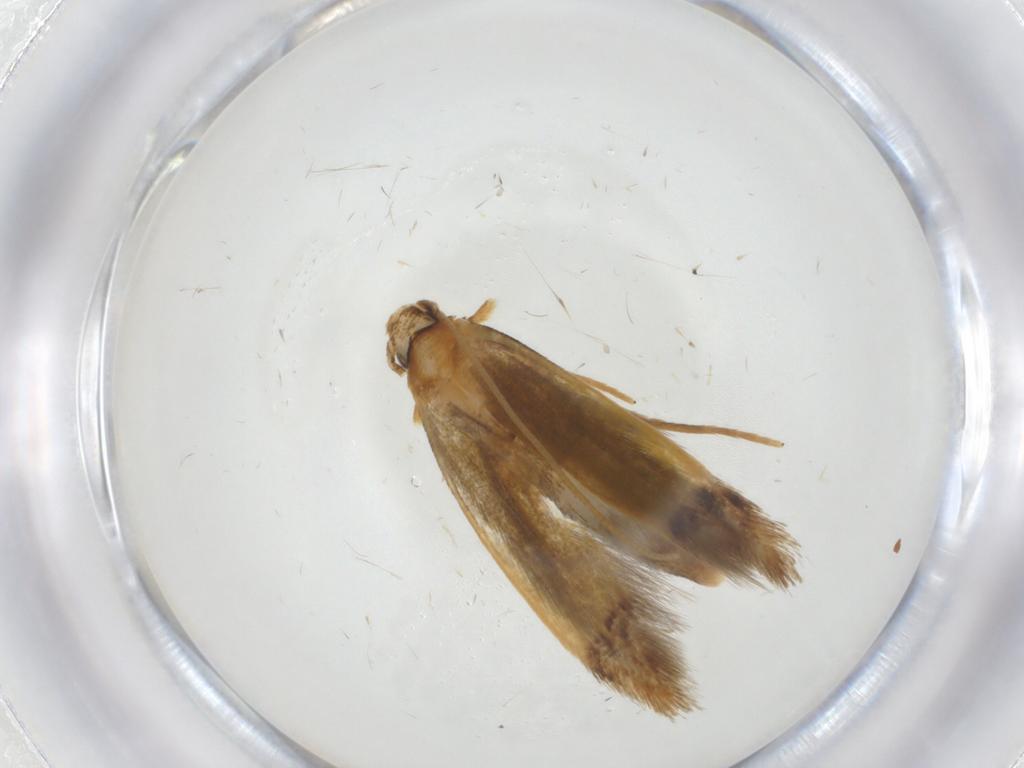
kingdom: Animalia
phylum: Arthropoda
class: Insecta
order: Lepidoptera
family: Tineidae
